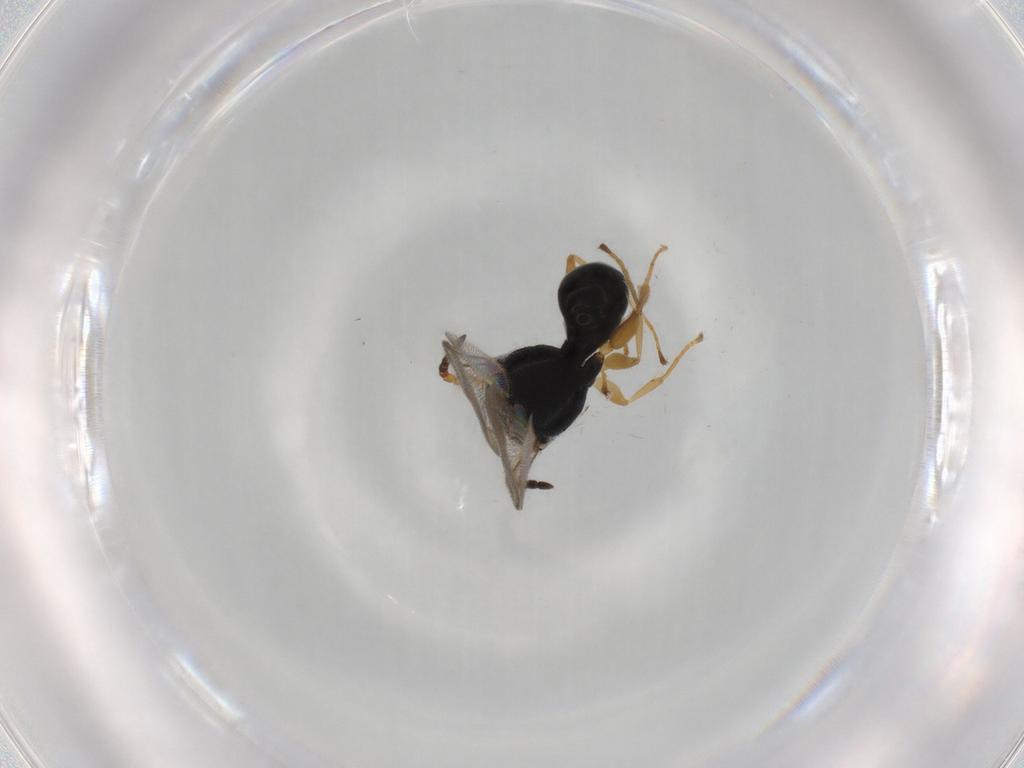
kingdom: Animalia
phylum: Arthropoda
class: Insecta
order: Hymenoptera
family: Dryinidae
